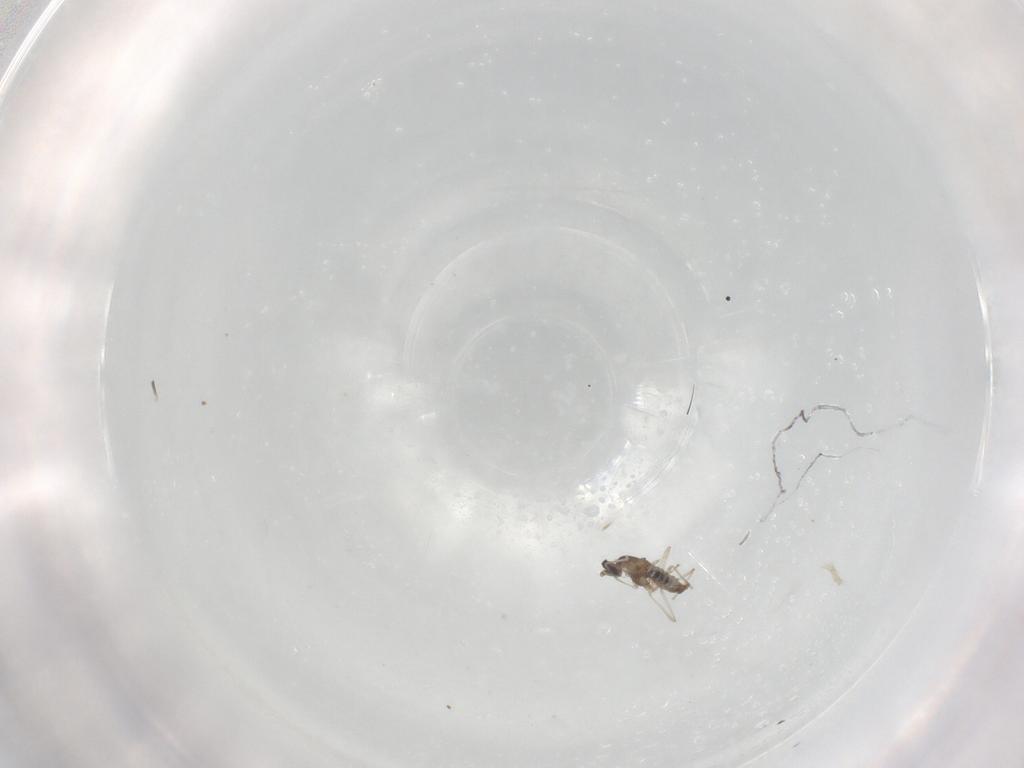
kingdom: Animalia
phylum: Arthropoda
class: Insecta
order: Diptera
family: Cecidomyiidae
